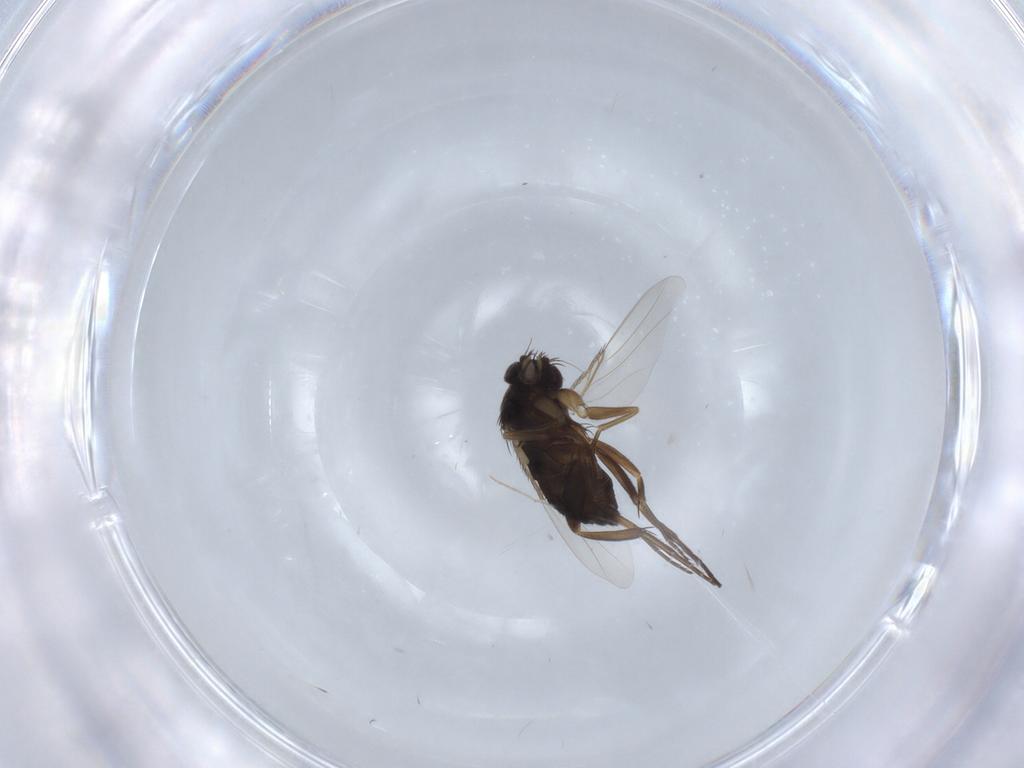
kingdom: Animalia
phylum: Arthropoda
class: Insecta
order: Diptera
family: Phoridae
